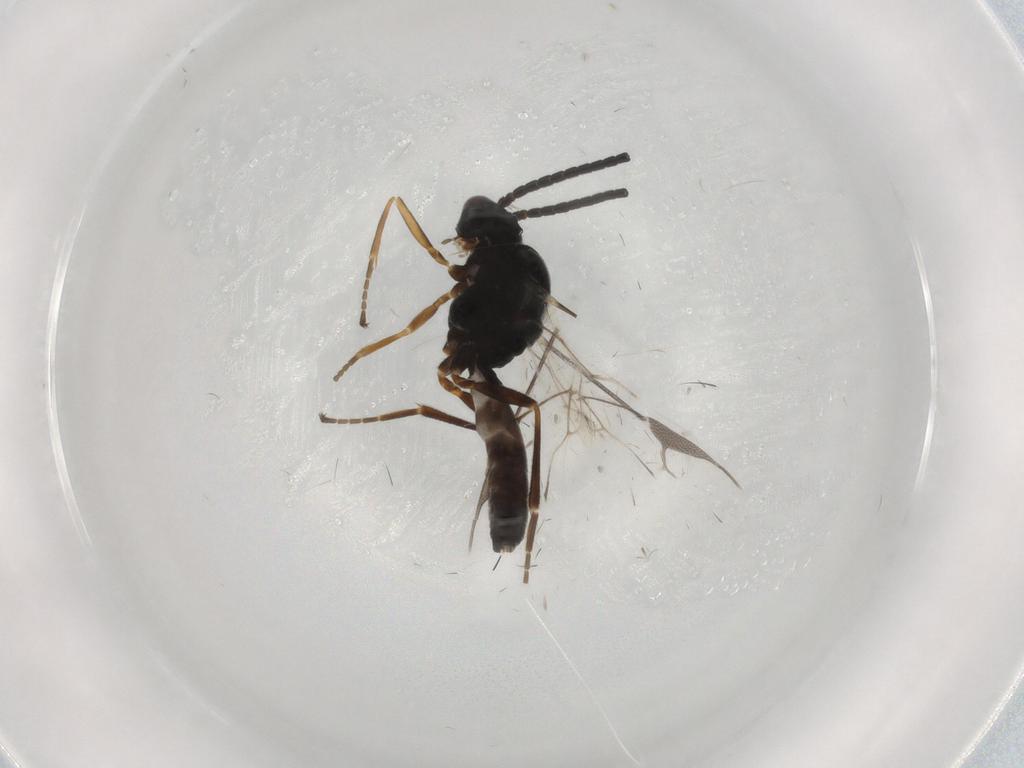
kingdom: Animalia
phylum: Arthropoda
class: Insecta
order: Hymenoptera
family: Braconidae
